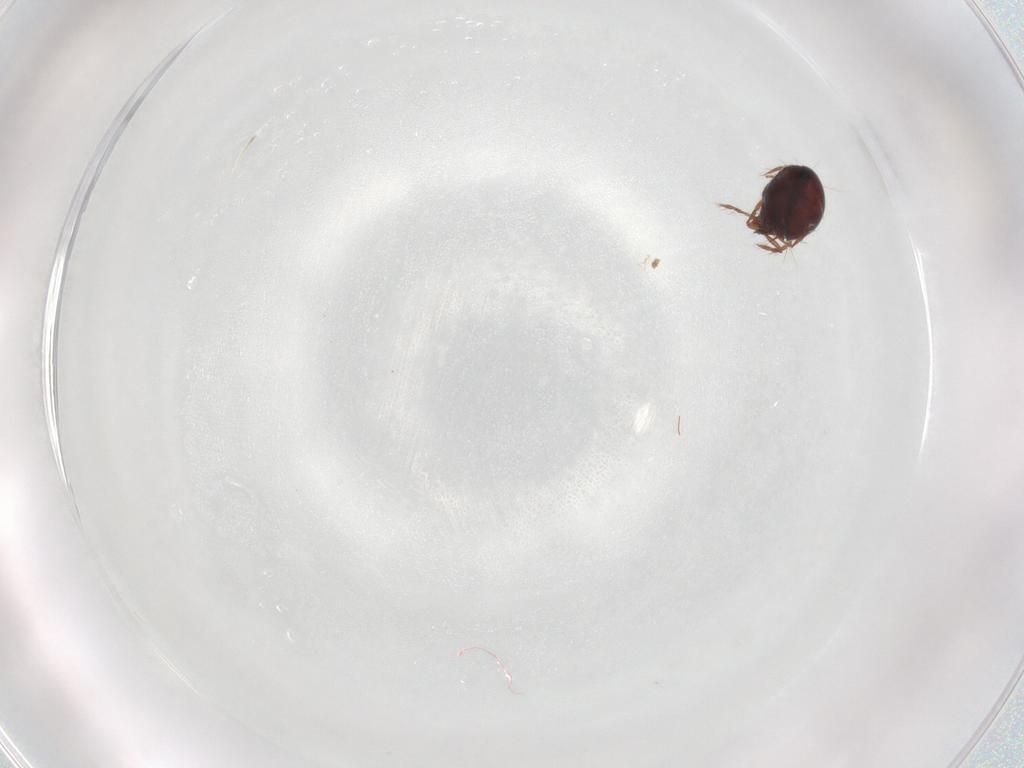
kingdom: Animalia
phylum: Arthropoda
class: Arachnida
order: Sarcoptiformes
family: Ceratoppiidae
